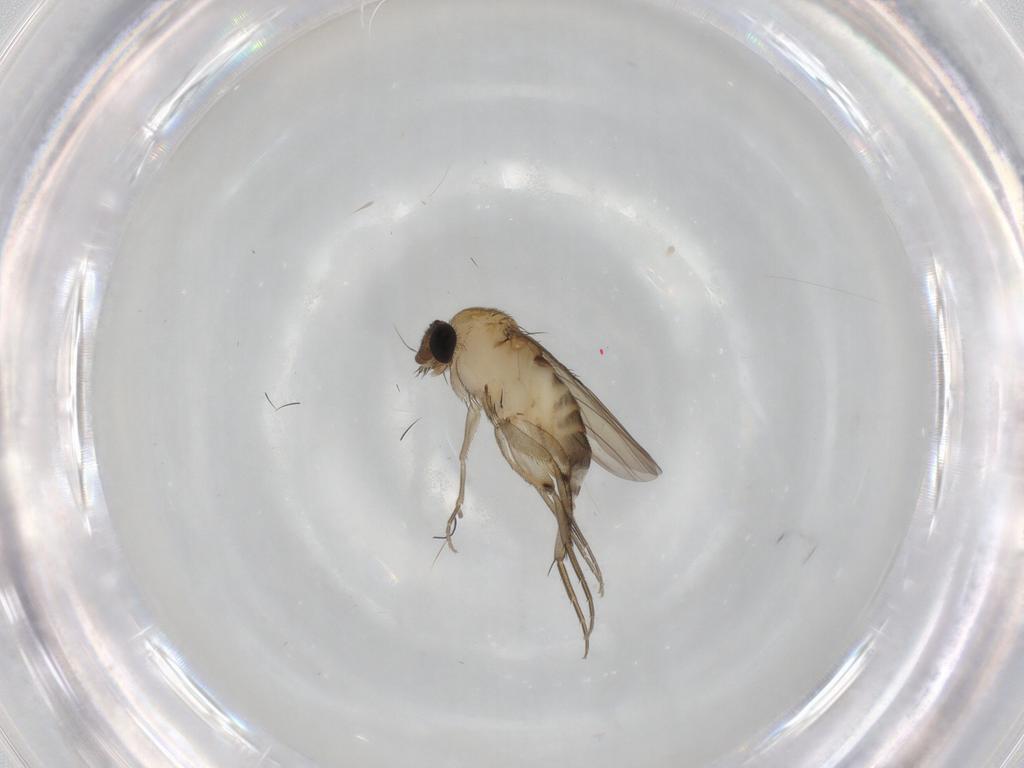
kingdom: Animalia
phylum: Arthropoda
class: Insecta
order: Diptera
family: Phoridae
